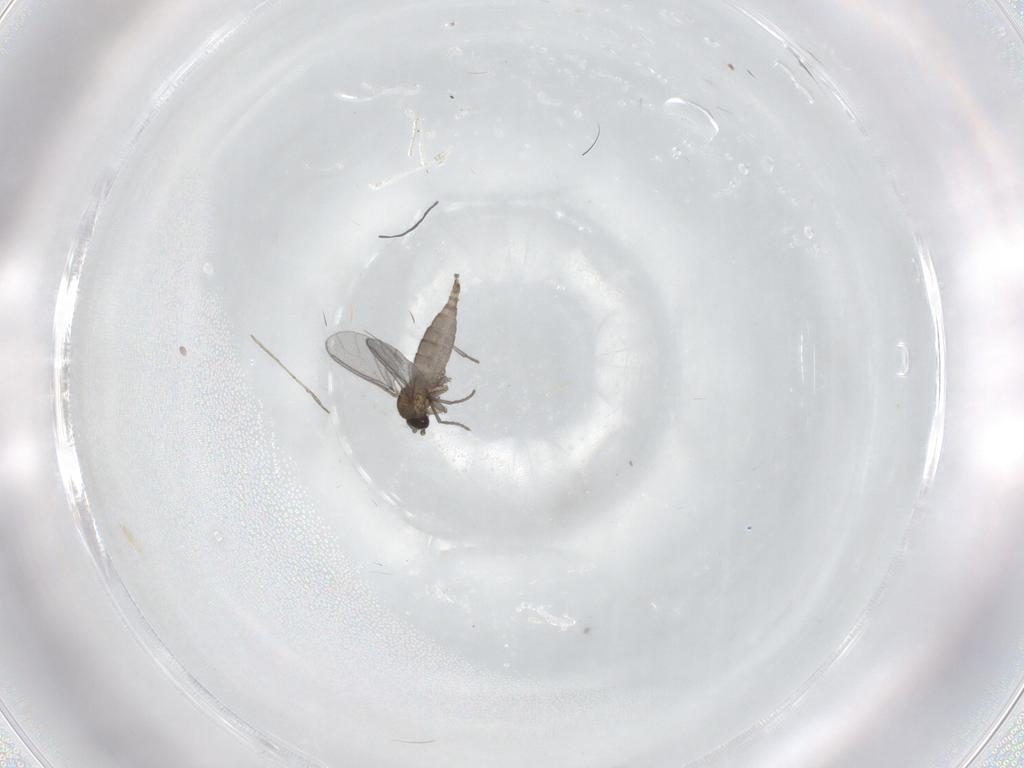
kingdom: Animalia
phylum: Arthropoda
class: Insecta
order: Diptera
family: Sciaridae
